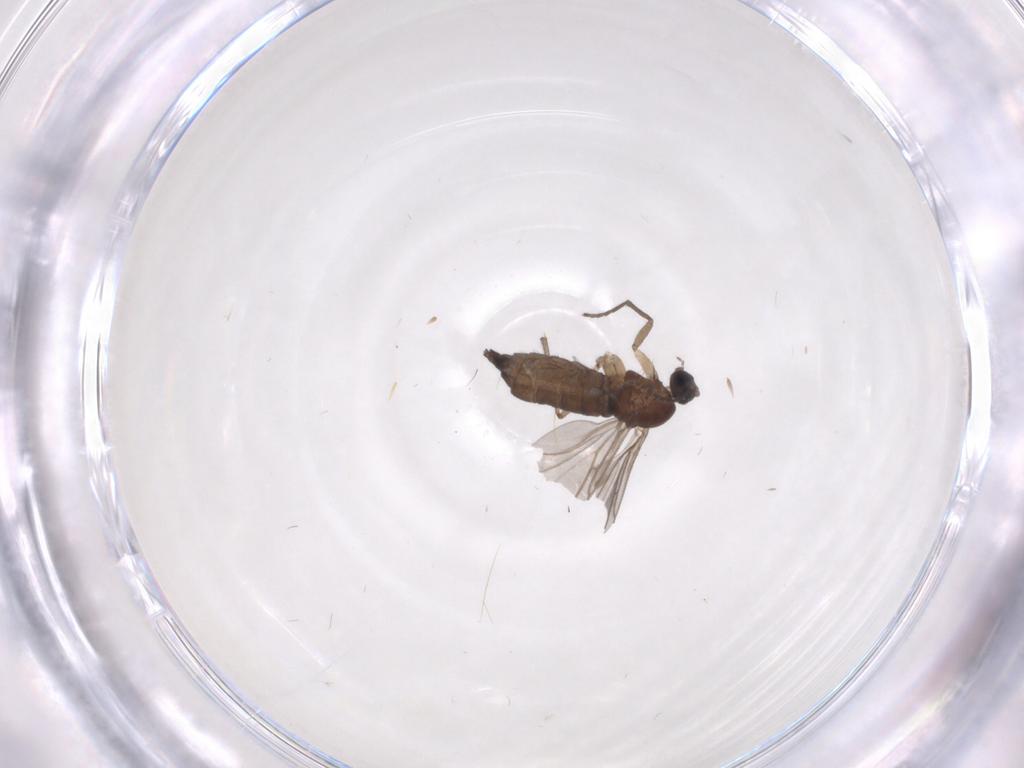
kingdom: Animalia
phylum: Arthropoda
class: Insecta
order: Diptera
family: Sciaridae
